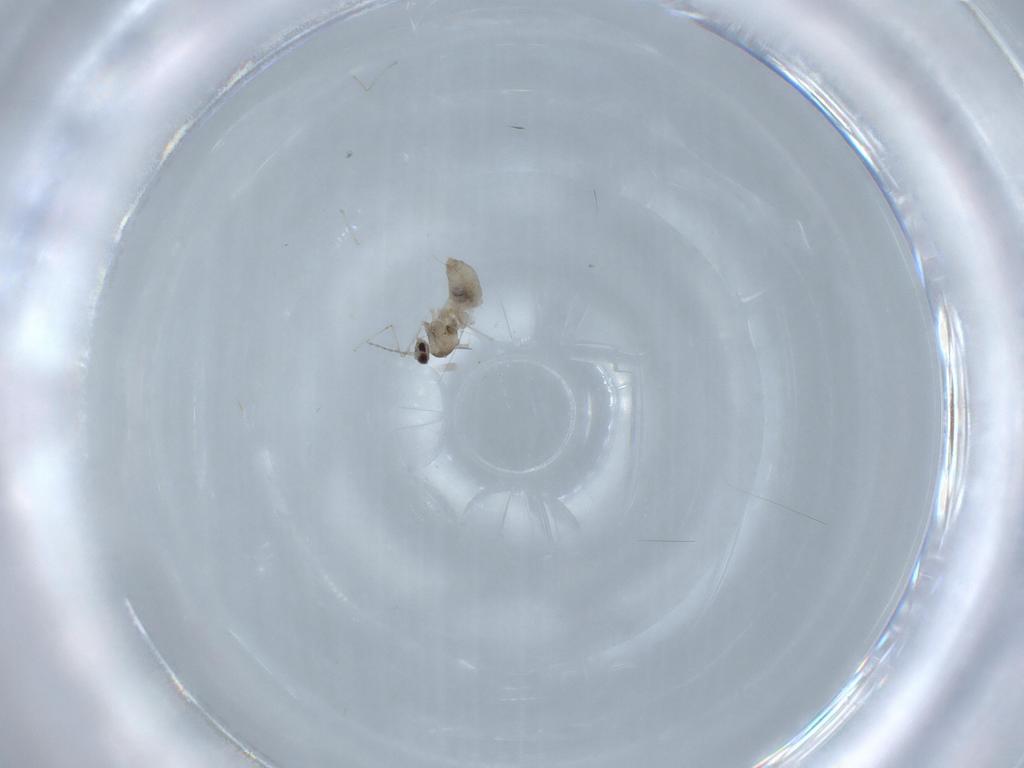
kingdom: Animalia
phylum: Arthropoda
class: Insecta
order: Diptera
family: Cecidomyiidae
